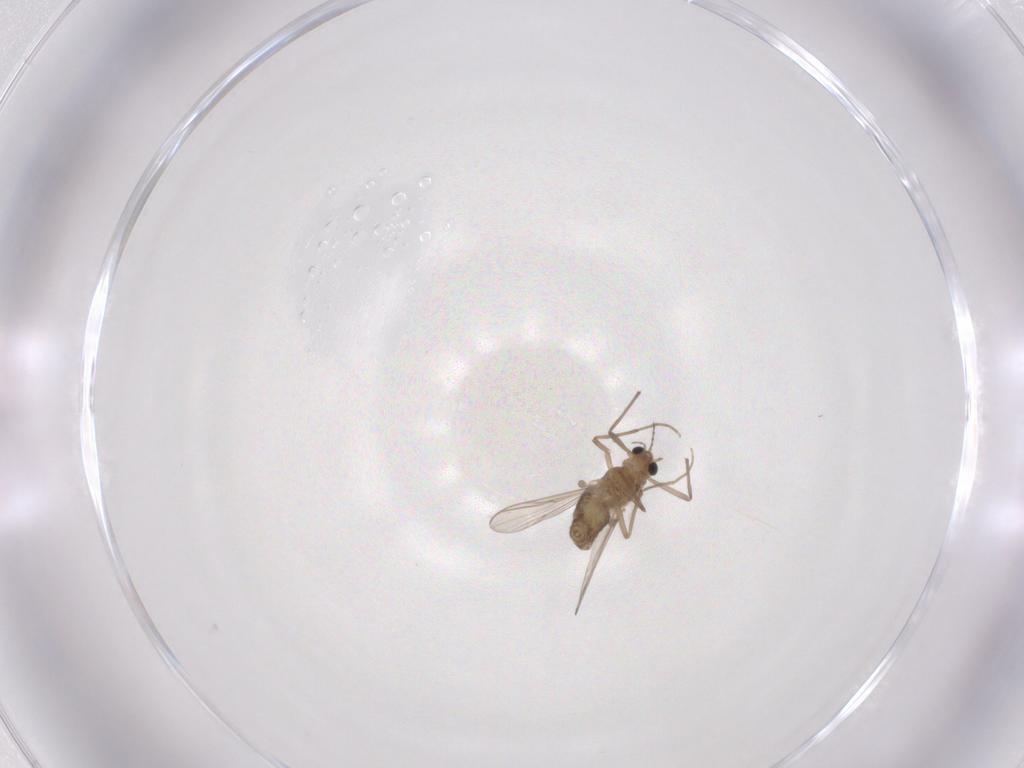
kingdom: Animalia
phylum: Arthropoda
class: Insecta
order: Diptera
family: Chironomidae
